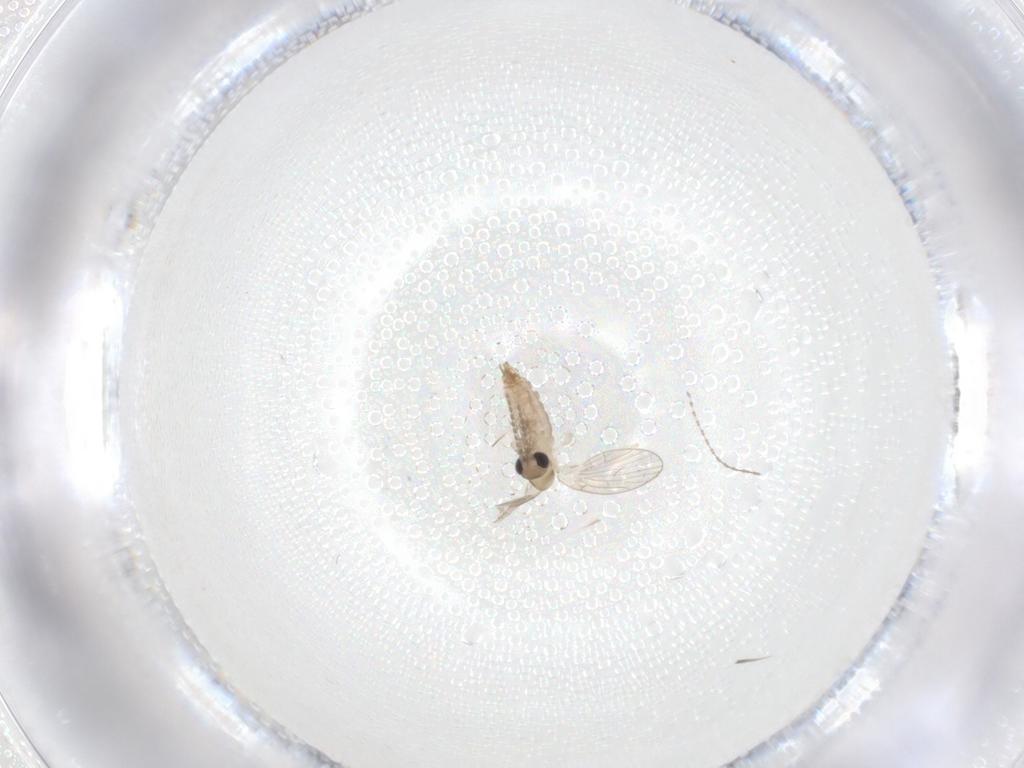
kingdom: Animalia
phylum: Arthropoda
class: Insecta
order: Diptera
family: Cecidomyiidae
